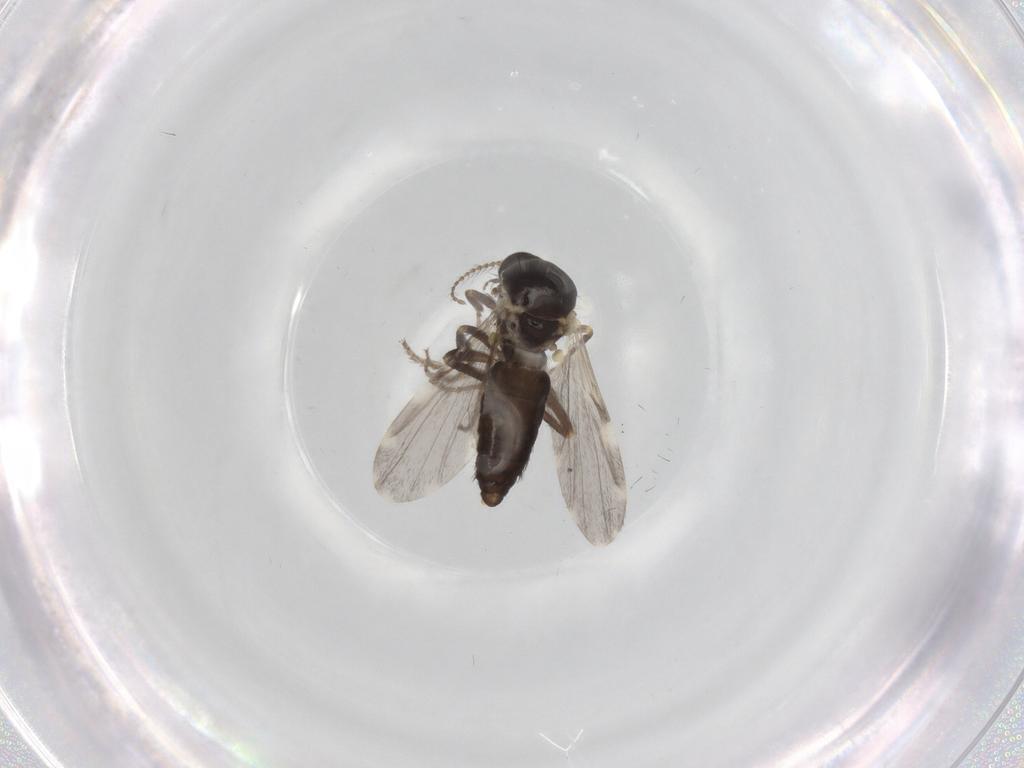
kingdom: Animalia
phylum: Arthropoda
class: Insecta
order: Diptera
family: Ceratopogonidae
